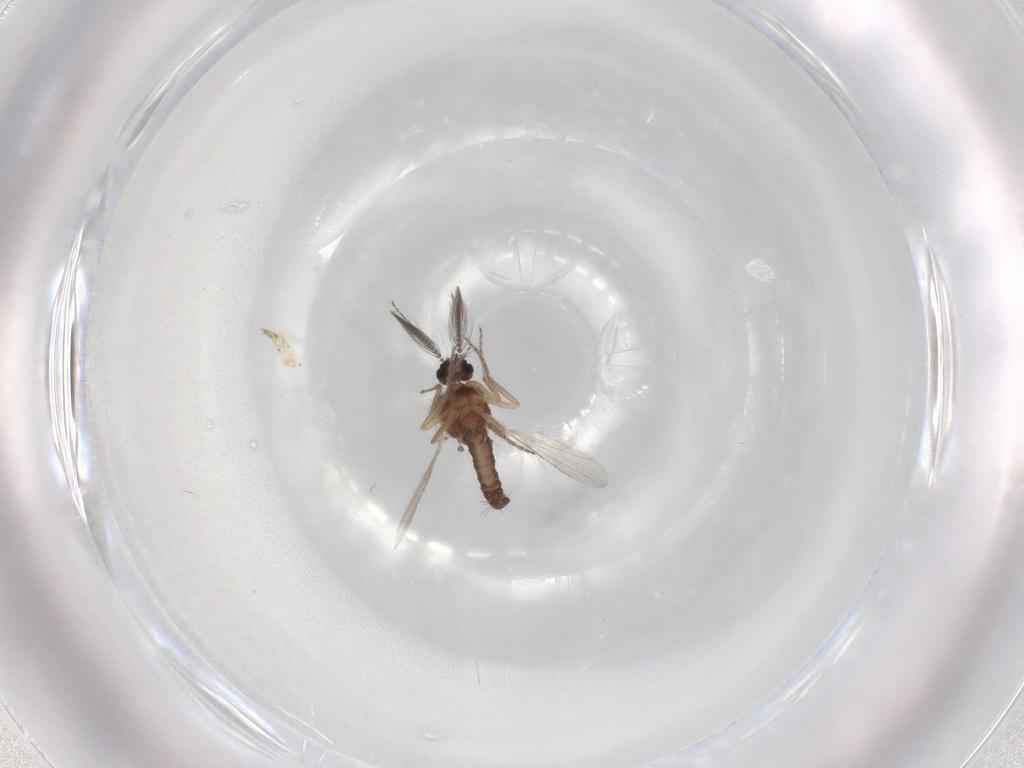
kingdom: Animalia
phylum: Arthropoda
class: Insecta
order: Diptera
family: Ceratopogonidae
